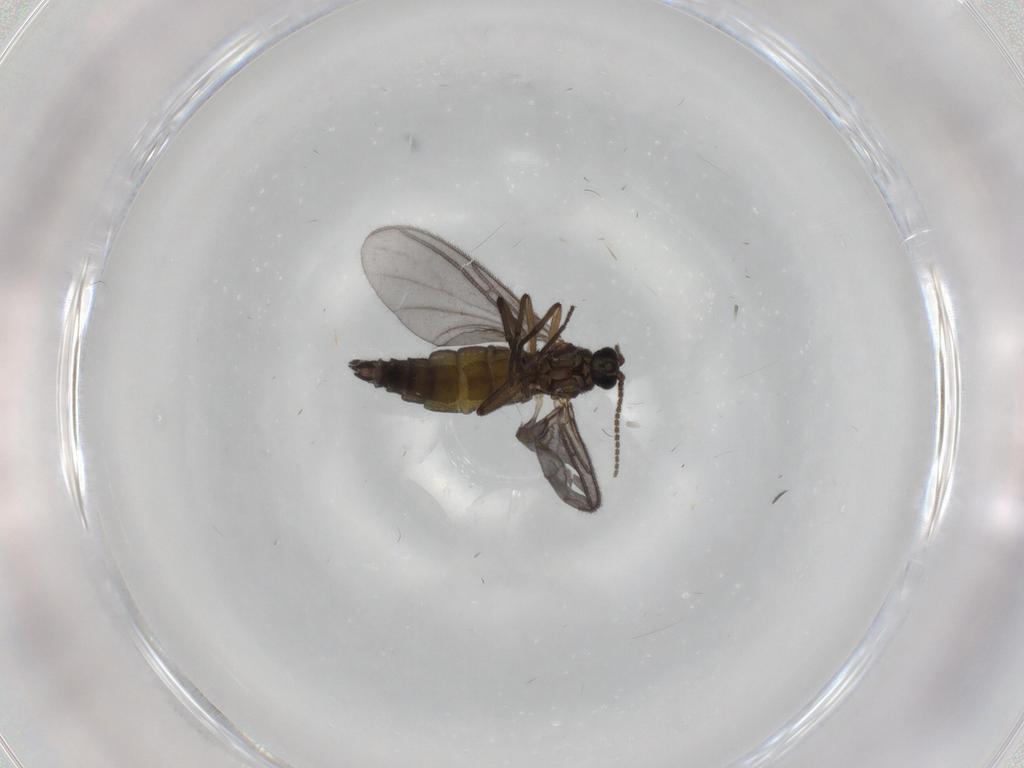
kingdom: Animalia
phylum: Arthropoda
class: Insecta
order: Diptera
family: Sciaridae
